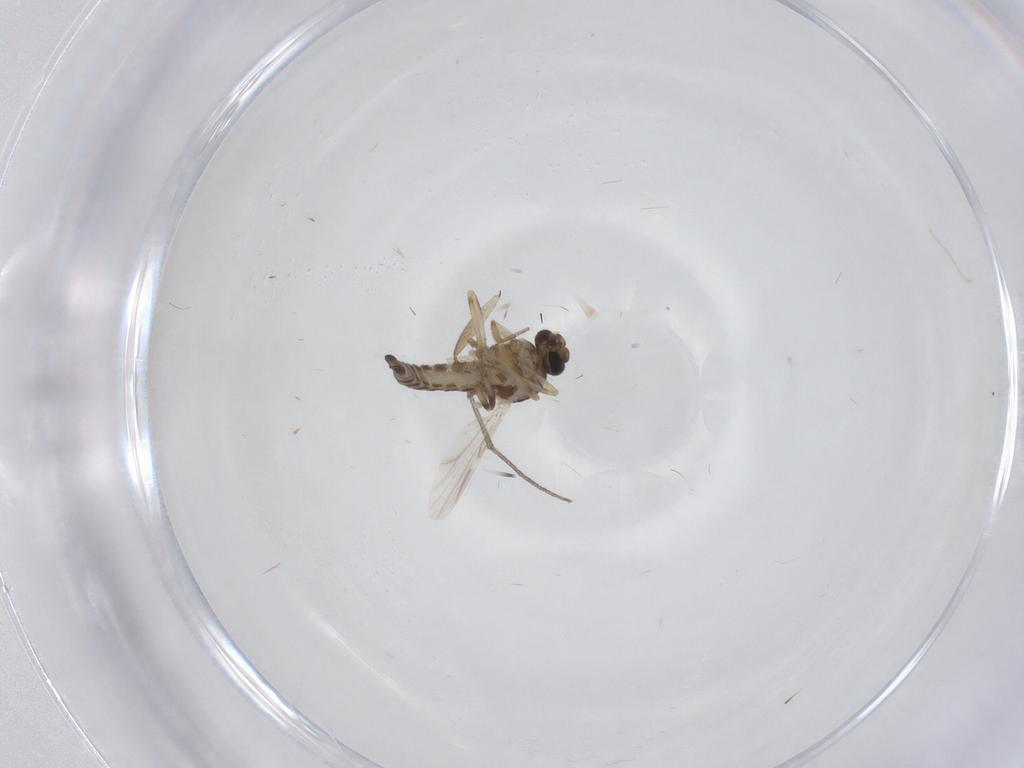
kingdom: Animalia
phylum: Arthropoda
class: Insecta
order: Diptera
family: Ceratopogonidae
